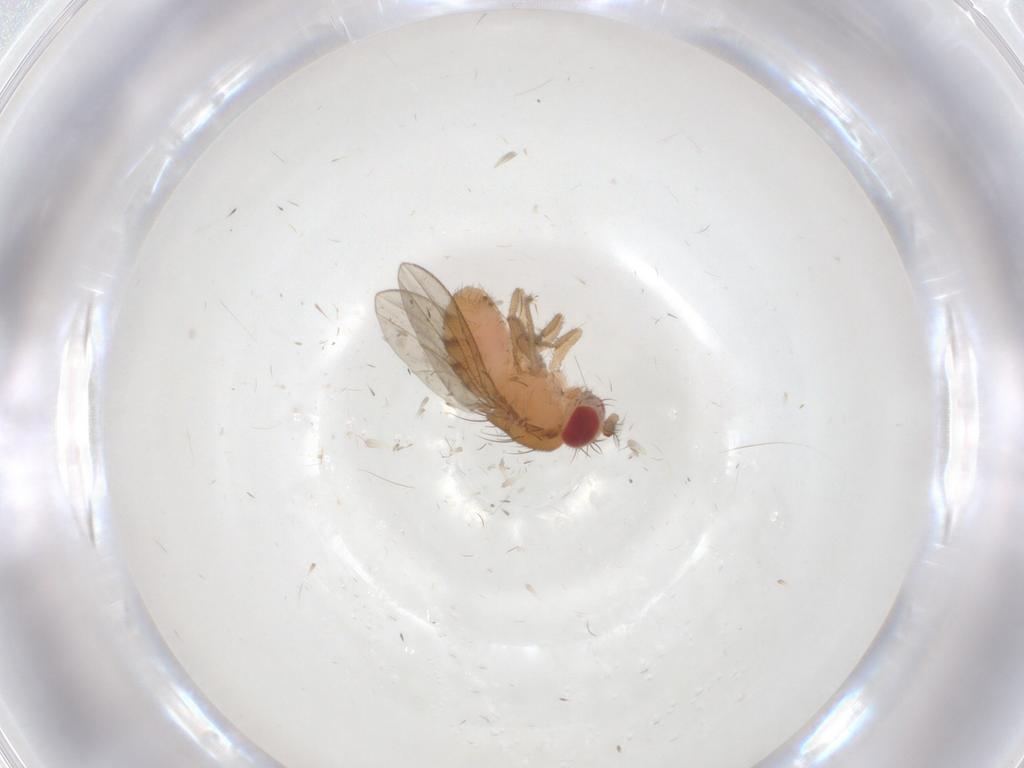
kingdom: Animalia
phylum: Arthropoda
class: Insecta
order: Diptera
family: Drosophilidae
